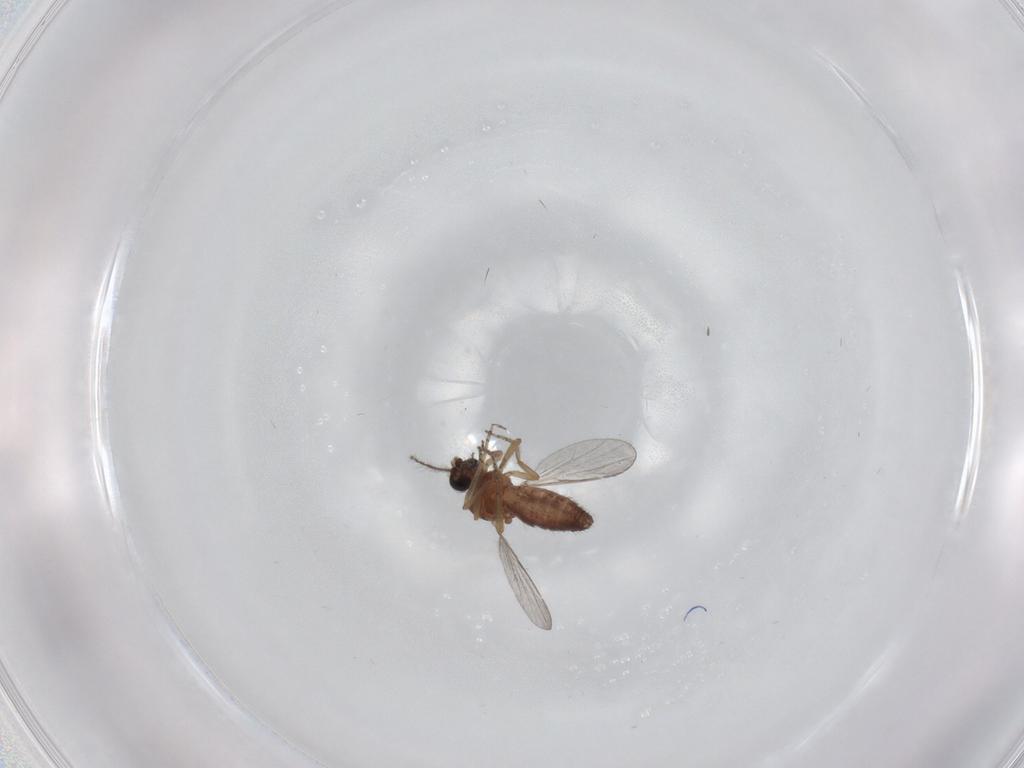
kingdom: Animalia
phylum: Arthropoda
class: Insecta
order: Diptera
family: Ceratopogonidae
